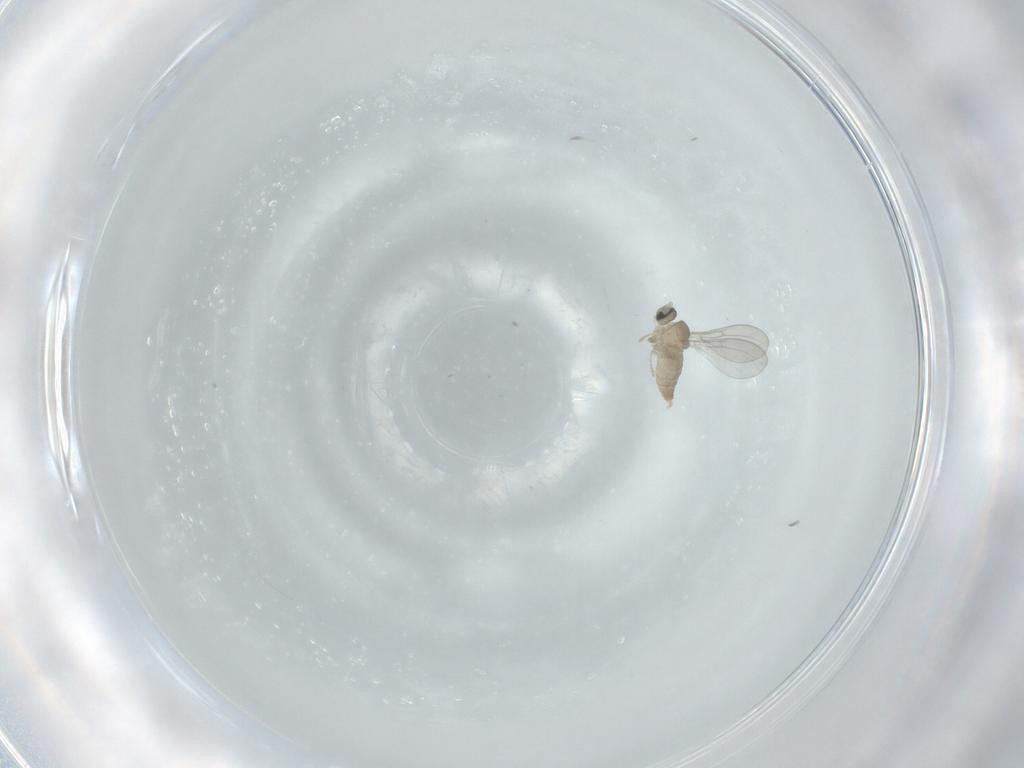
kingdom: Animalia
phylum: Arthropoda
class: Insecta
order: Diptera
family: Cecidomyiidae
